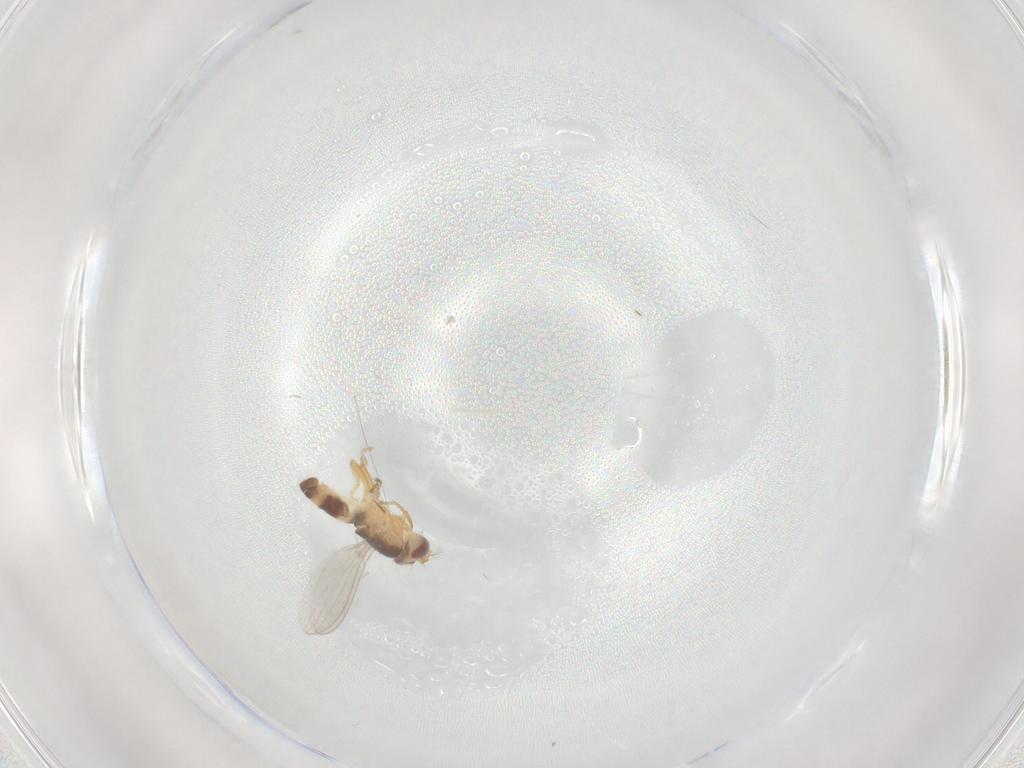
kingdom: Animalia
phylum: Arthropoda
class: Insecta
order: Diptera
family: Periscelididae
